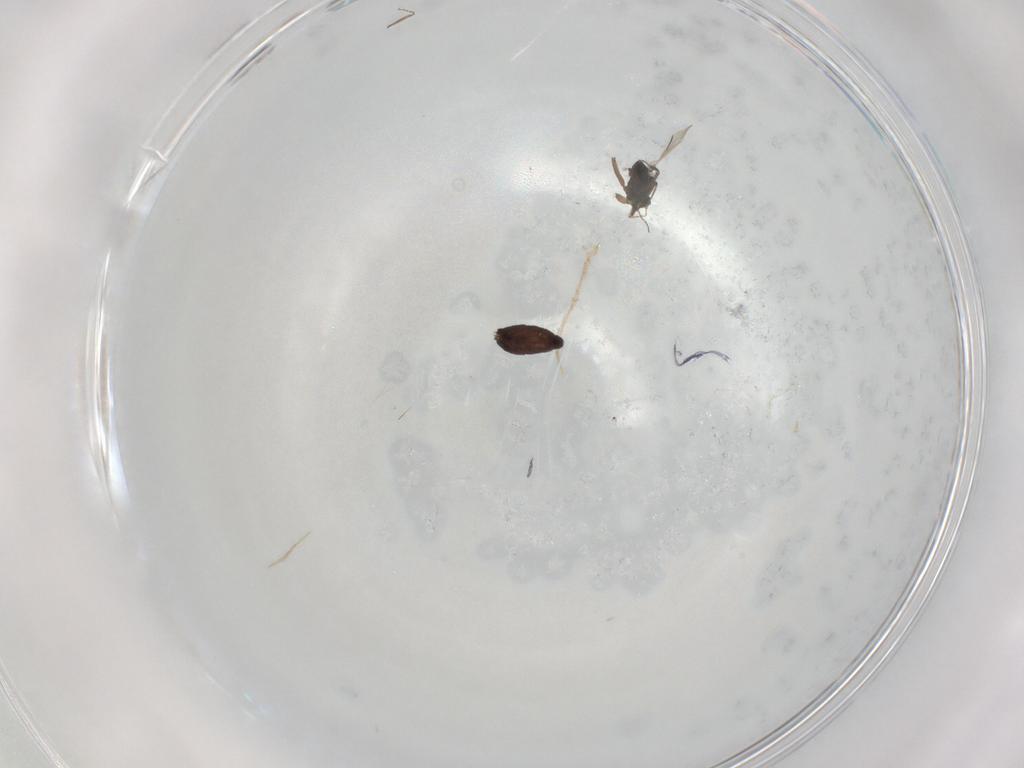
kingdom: Animalia
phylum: Arthropoda
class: Insecta
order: Diptera
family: Ceratopogonidae
